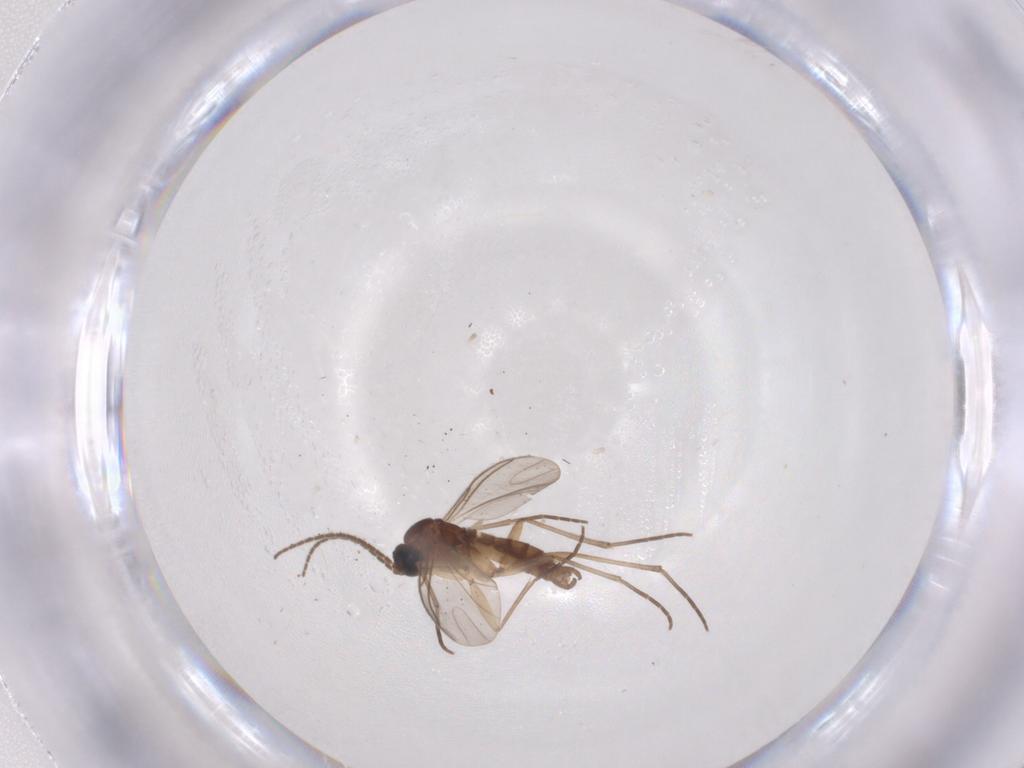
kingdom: Animalia
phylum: Arthropoda
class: Insecta
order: Diptera
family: Sciaridae
